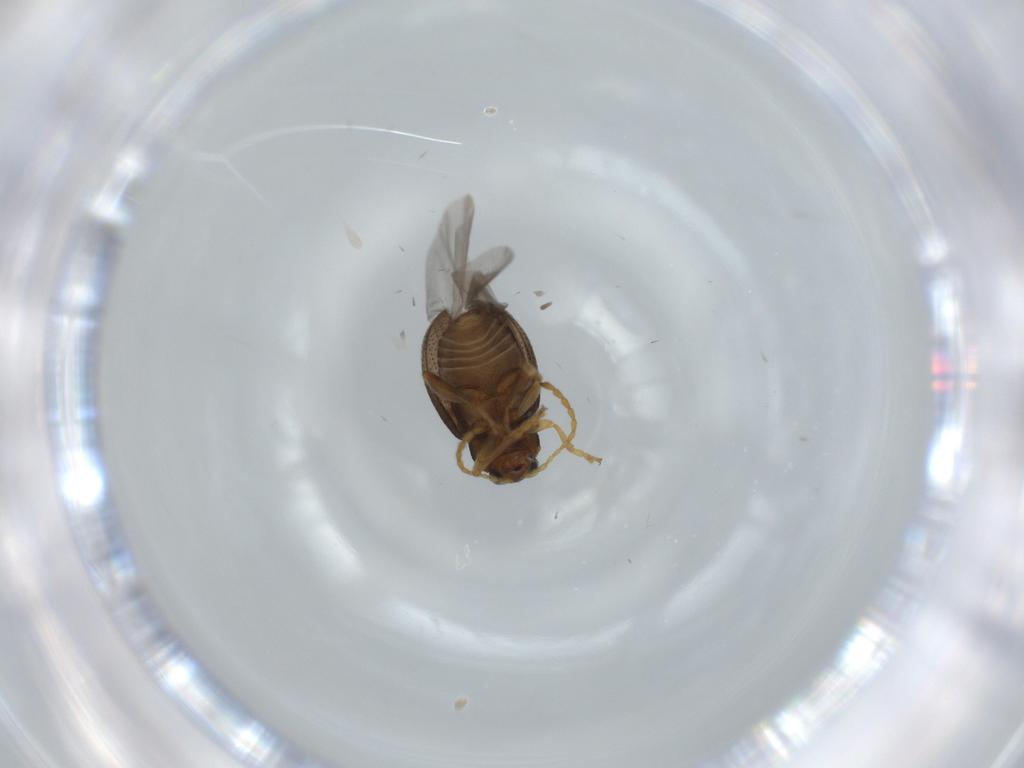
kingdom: Animalia
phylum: Arthropoda
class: Insecta
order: Coleoptera
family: Chrysomelidae
